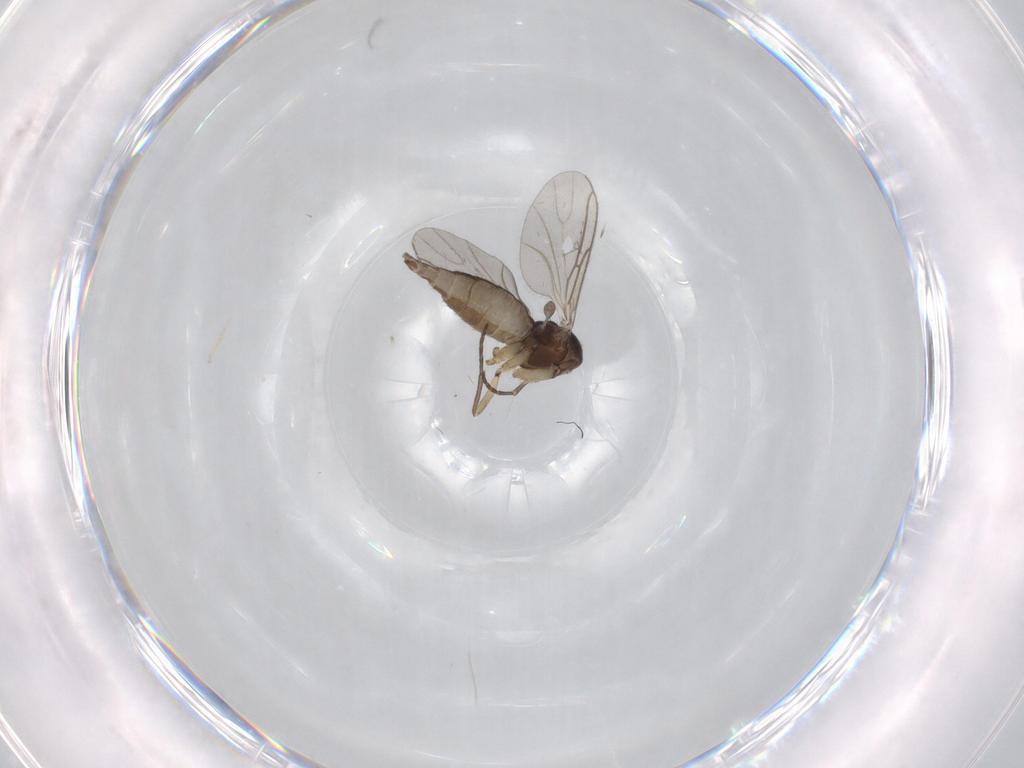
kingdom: Animalia
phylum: Arthropoda
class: Insecta
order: Diptera
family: Sciaridae
